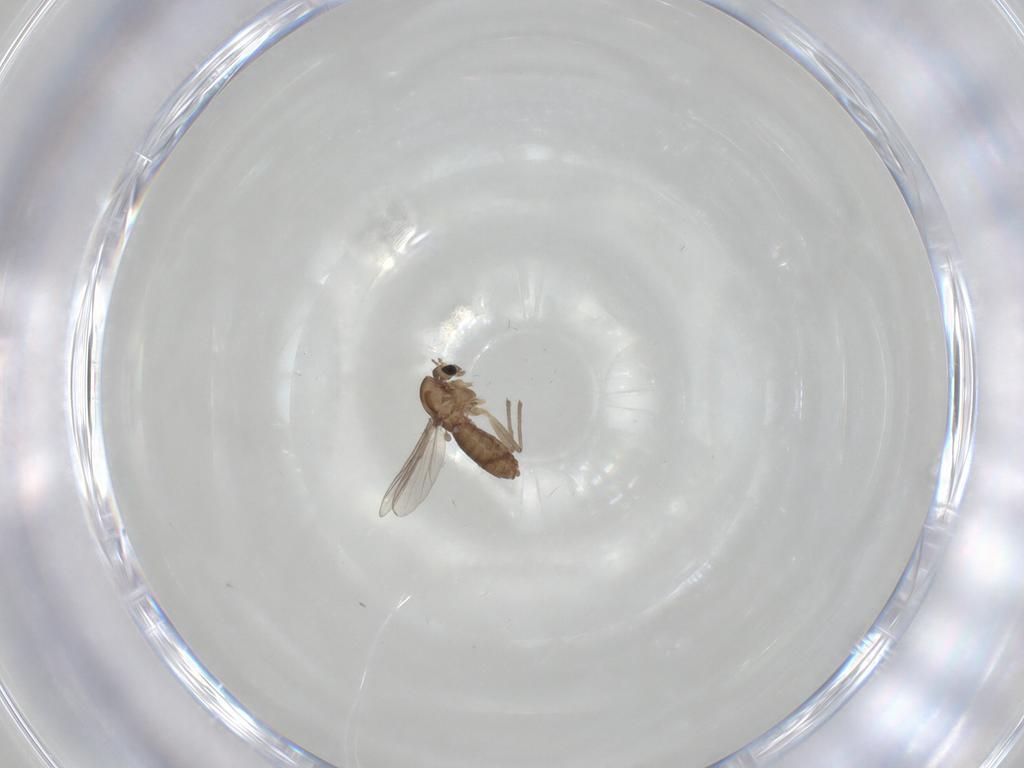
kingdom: Animalia
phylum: Arthropoda
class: Insecta
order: Diptera
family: Chironomidae
